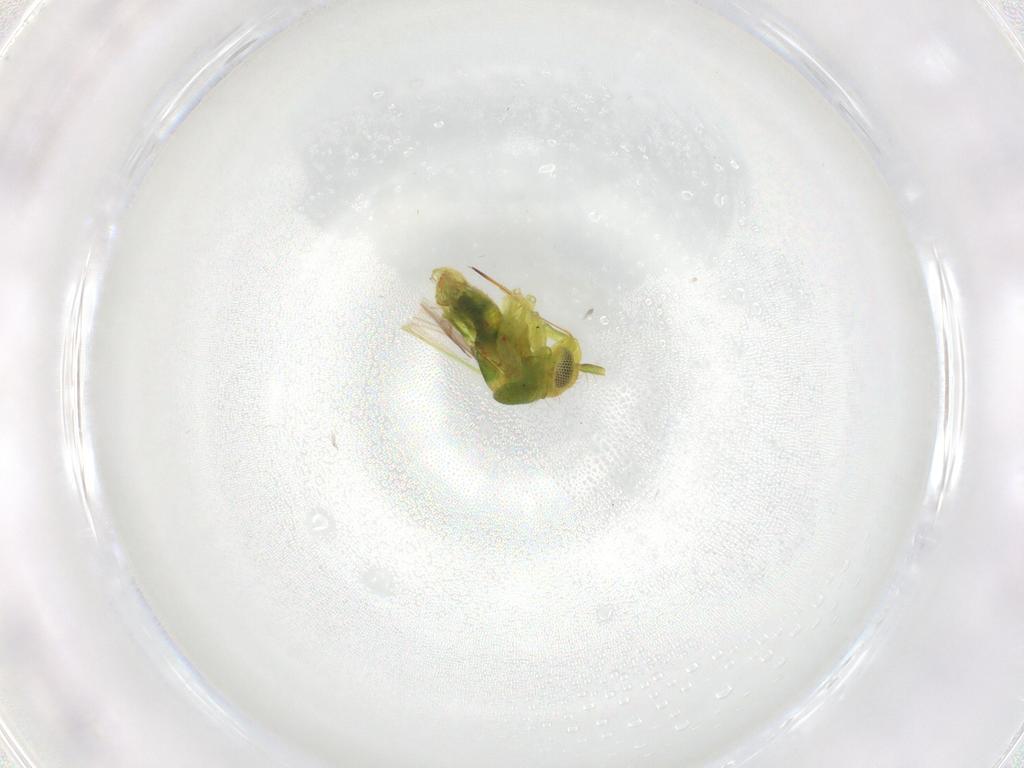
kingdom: Animalia
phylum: Arthropoda
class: Insecta
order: Hemiptera
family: Miridae
